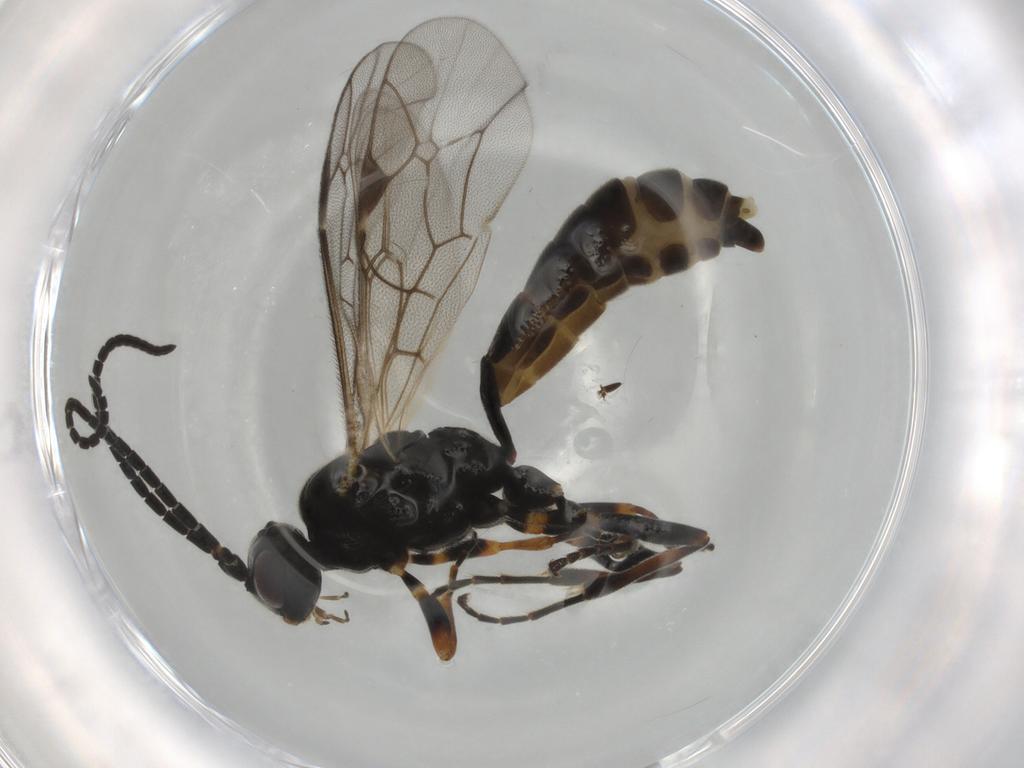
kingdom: Animalia
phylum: Arthropoda
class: Insecta
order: Hymenoptera
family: Ichneumonidae
